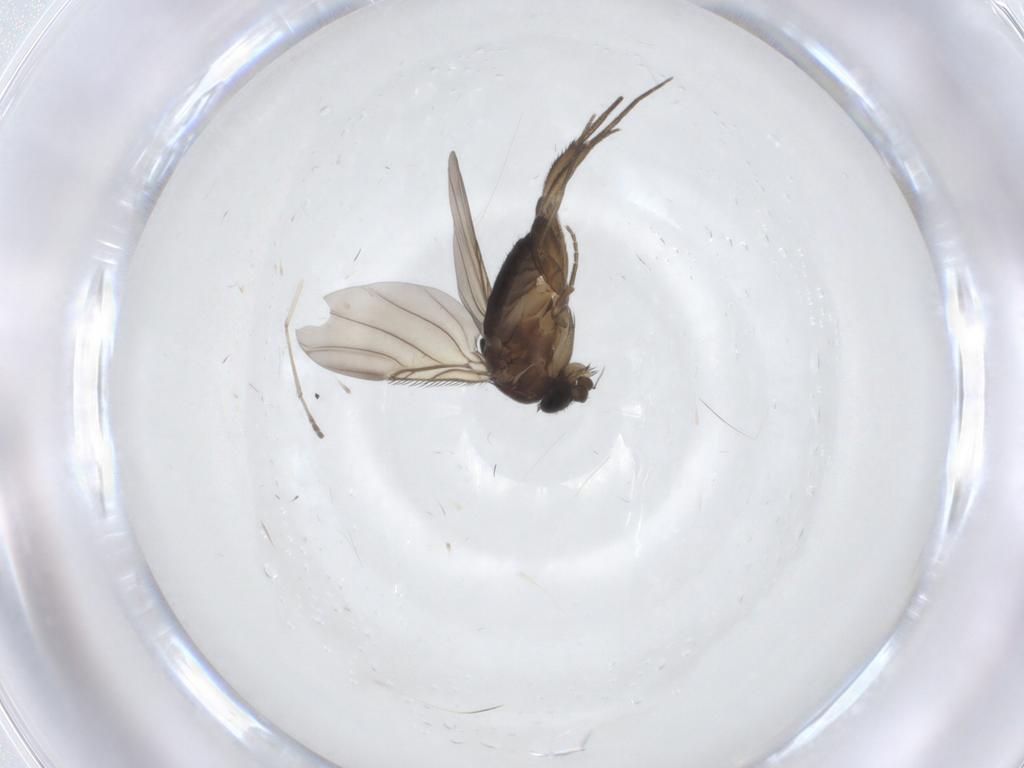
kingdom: Animalia
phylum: Arthropoda
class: Insecta
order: Diptera
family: Phoridae
